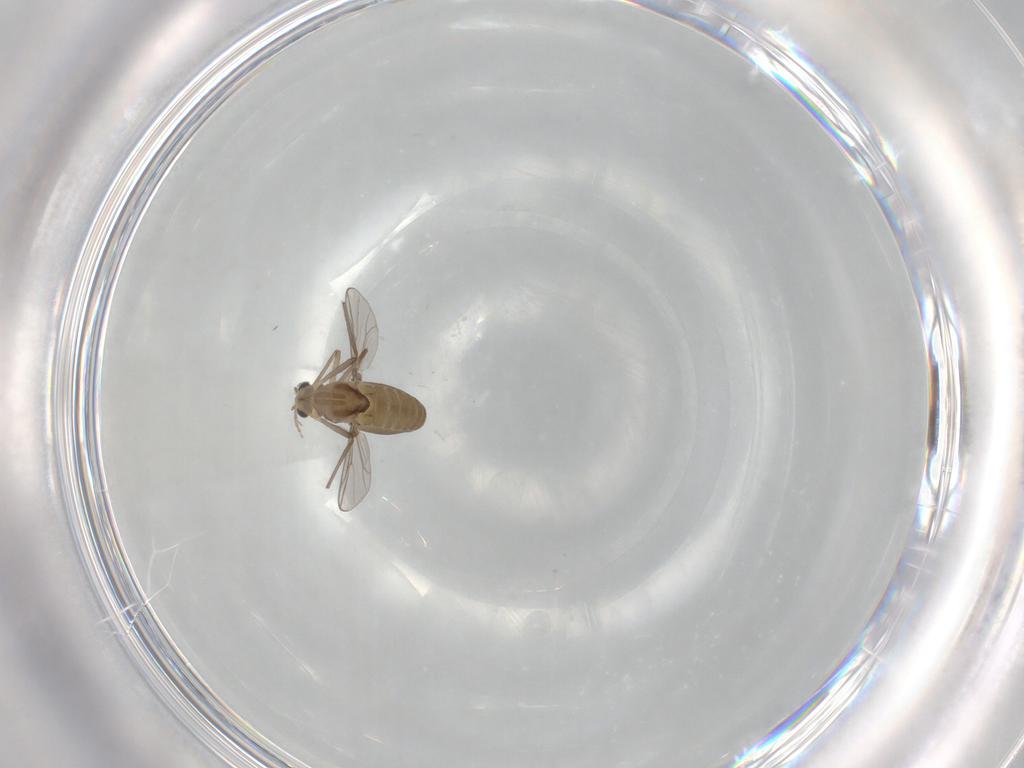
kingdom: Animalia
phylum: Arthropoda
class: Insecta
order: Diptera
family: Chironomidae
